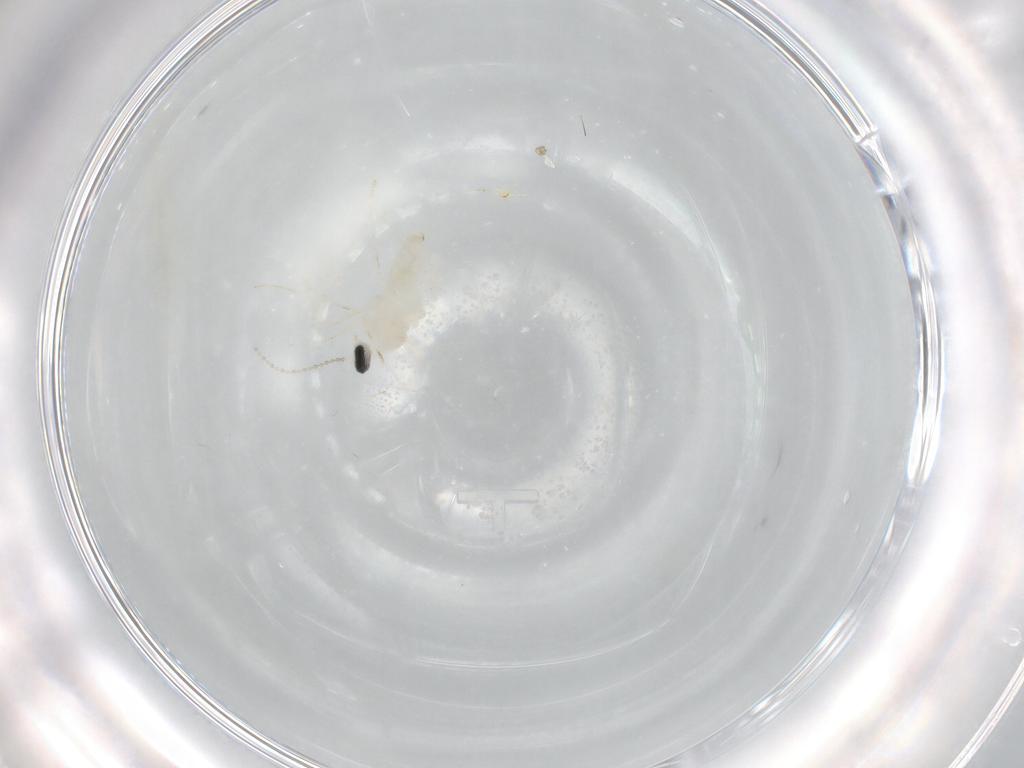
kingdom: Animalia
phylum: Arthropoda
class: Insecta
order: Diptera
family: Cecidomyiidae
